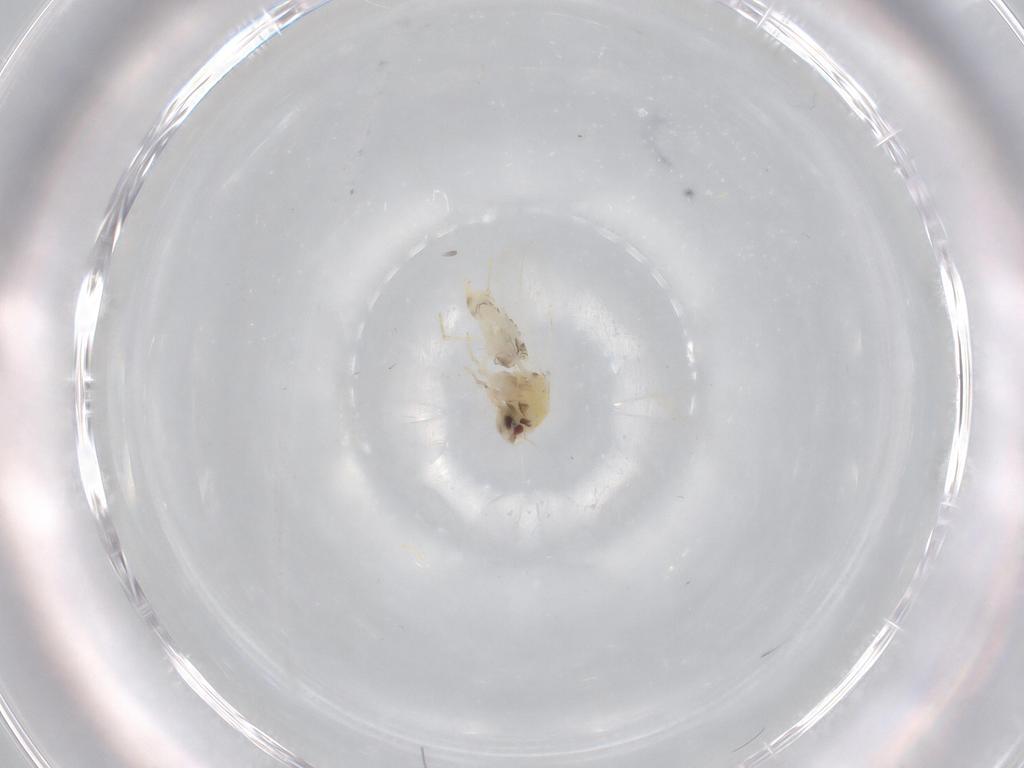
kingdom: Animalia
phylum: Arthropoda
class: Insecta
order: Hemiptera
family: Aleyrodidae
